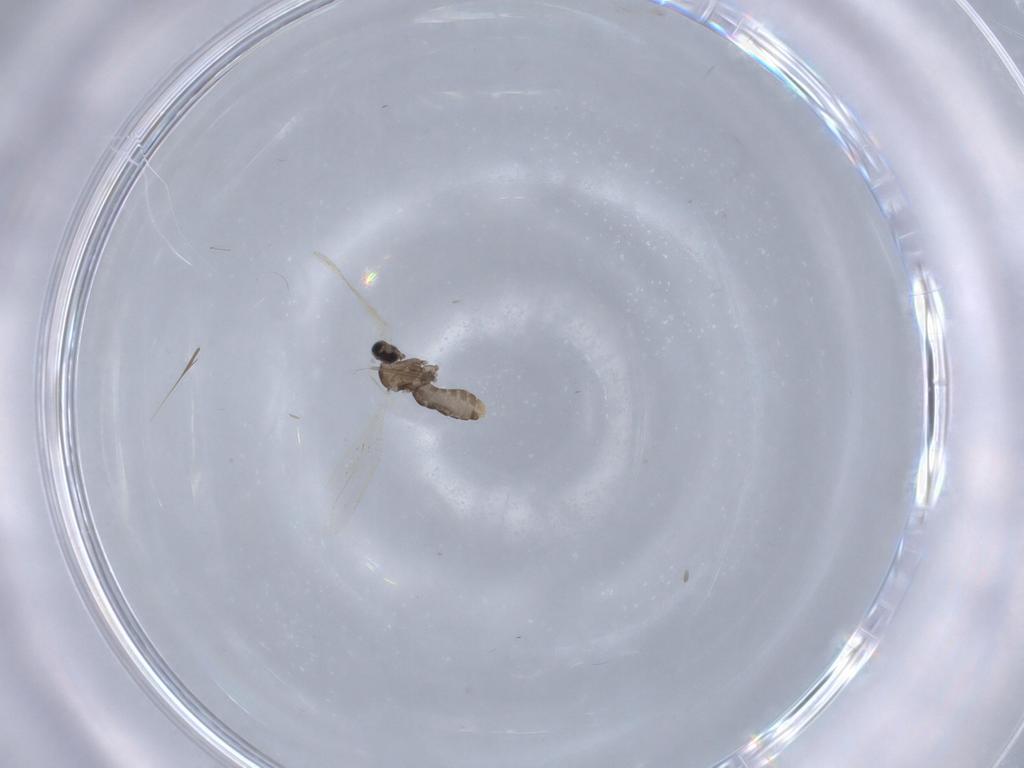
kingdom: Animalia
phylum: Arthropoda
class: Insecta
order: Diptera
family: Cecidomyiidae
